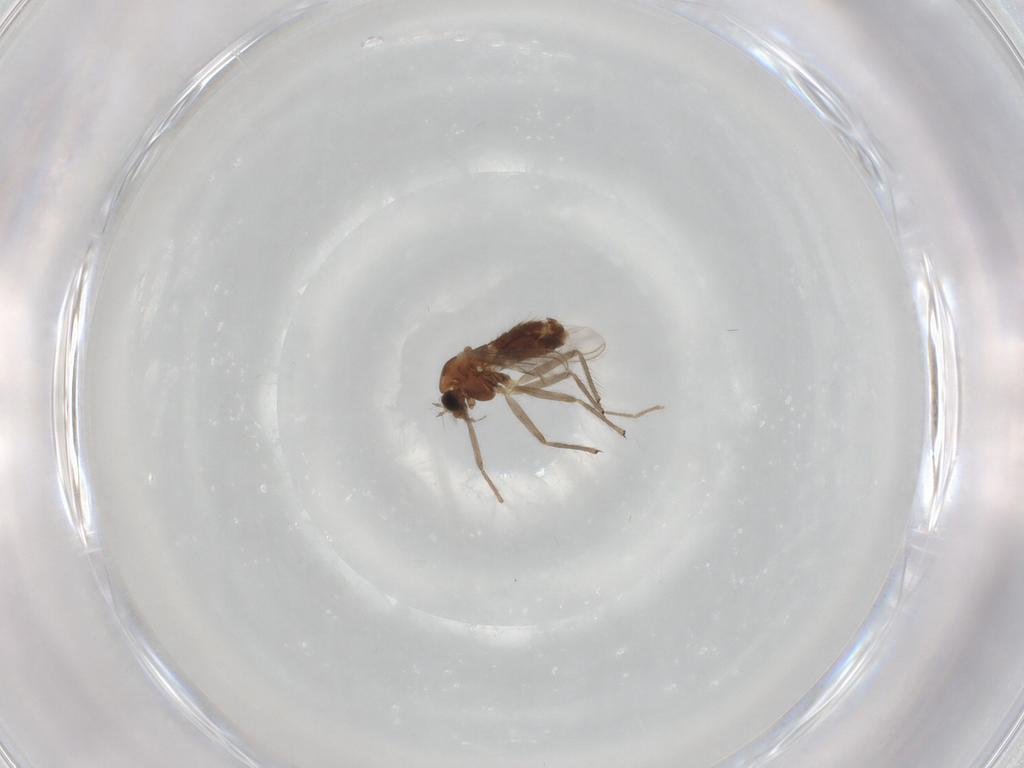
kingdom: Animalia
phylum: Arthropoda
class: Insecta
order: Diptera
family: Chironomidae
